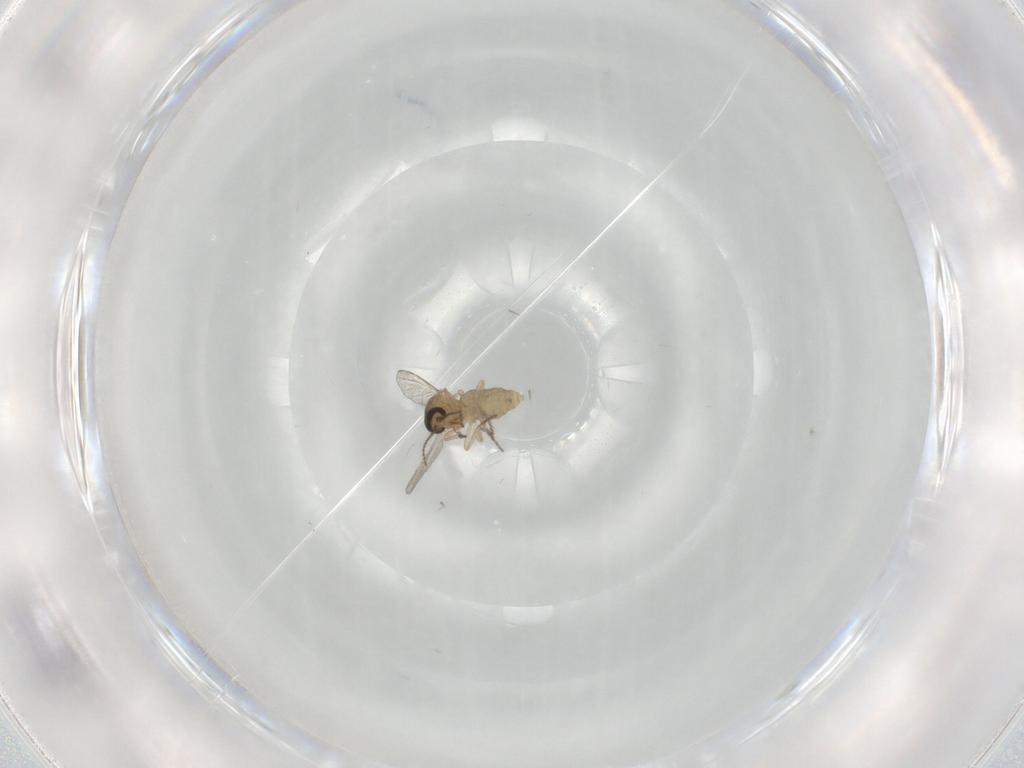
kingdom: Animalia
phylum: Arthropoda
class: Insecta
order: Diptera
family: Ceratopogonidae
